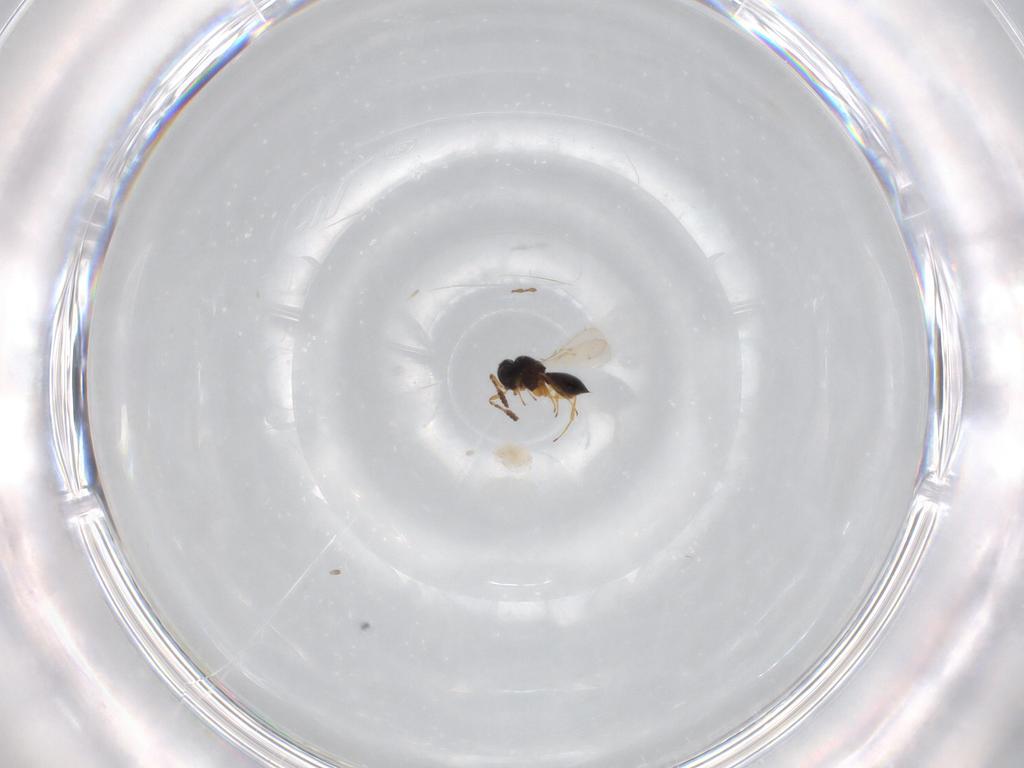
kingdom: Animalia
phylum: Arthropoda
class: Insecta
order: Hymenoptera
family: Scelionidae
